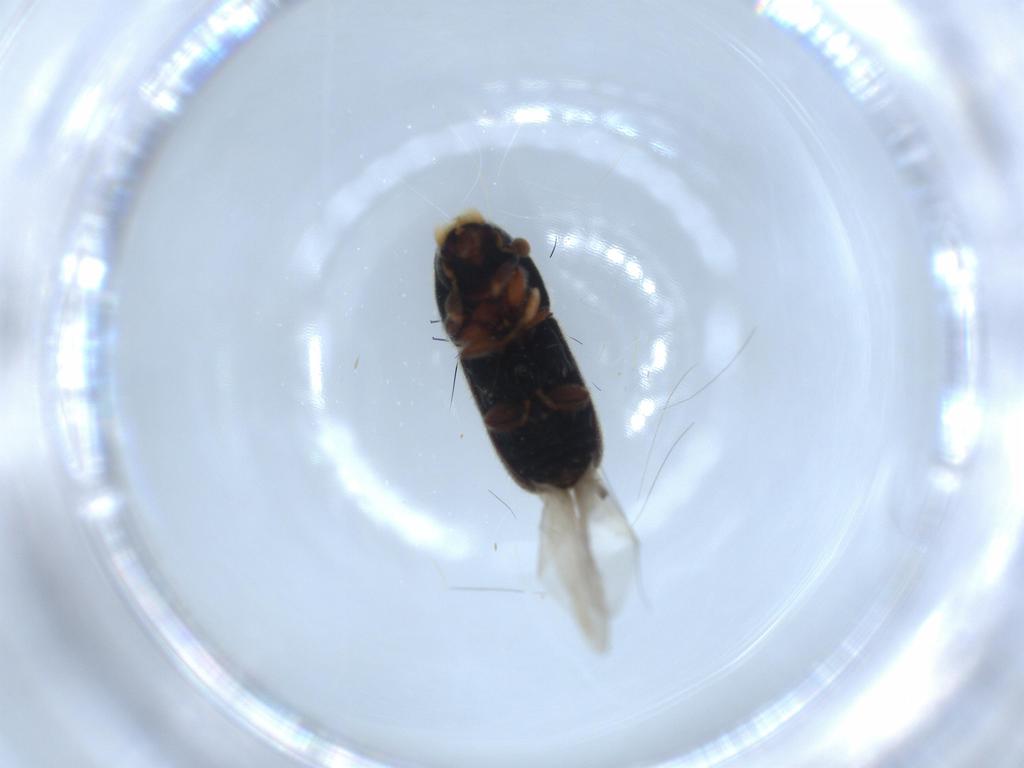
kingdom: Animalia
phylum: Arthropoda
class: Insecta
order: Coleoptera
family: Curculionidae
